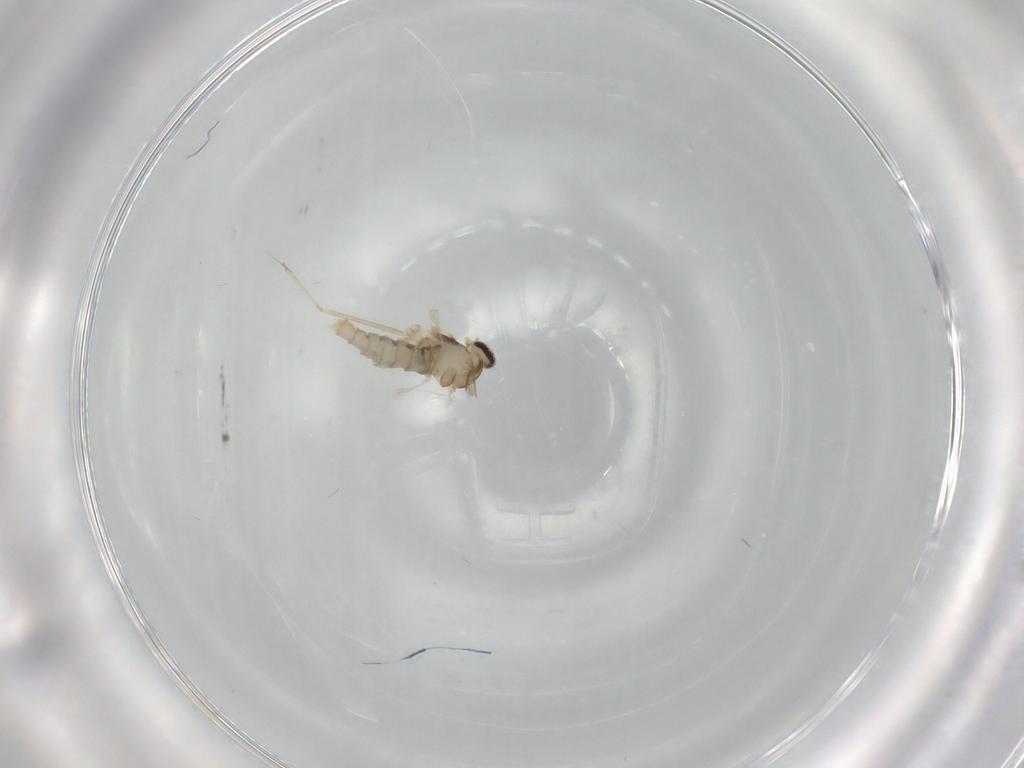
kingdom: Animalia
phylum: Arthropoda
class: Insecta
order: Diptera
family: Cecidomyiidae
